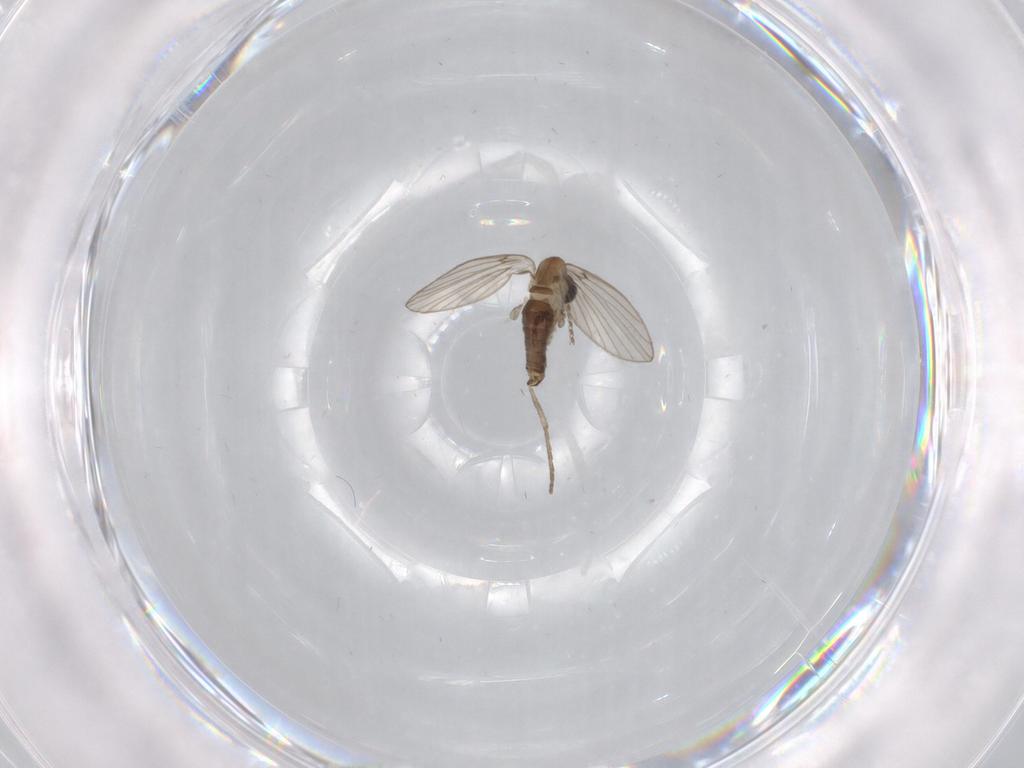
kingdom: Animalia
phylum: Arthropoda
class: Insecta
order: Diptera
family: Psychodidae
